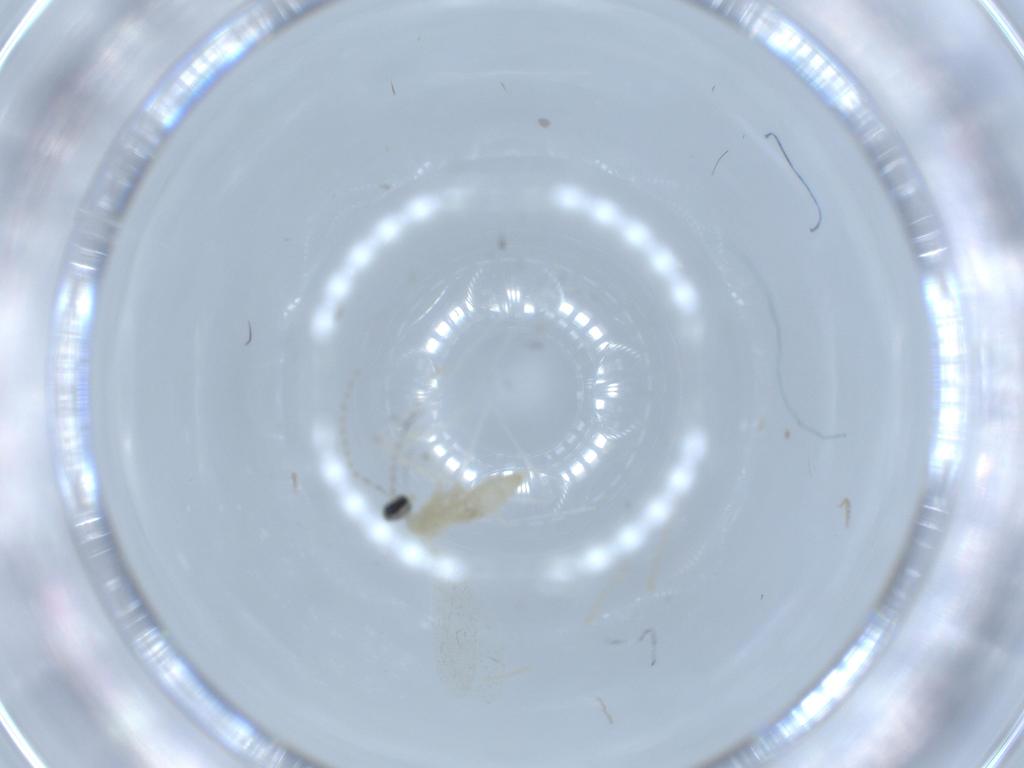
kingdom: Animalia
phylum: Arthropoda
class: Insecta
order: Diptera
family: Cecidomyiidae
